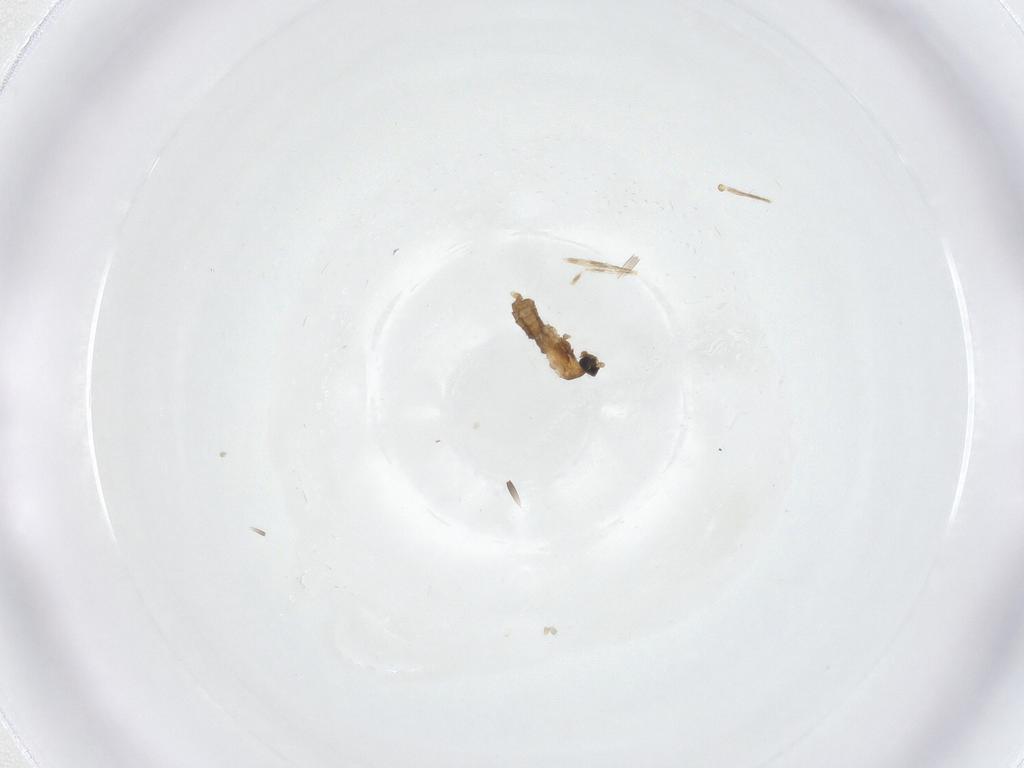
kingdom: Animalia
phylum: Arthropoda
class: Insecta
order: Diptera
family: Cecidomyiidae
